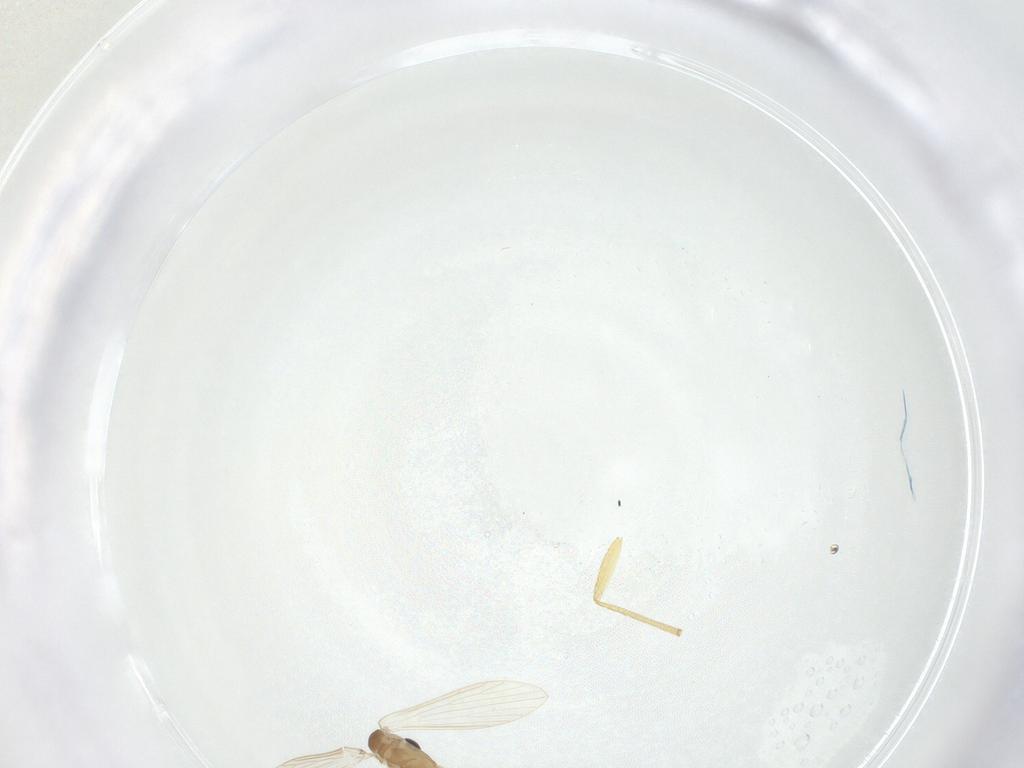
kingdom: Animalia
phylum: Arthropoda
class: Insecta
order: Diptera
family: Psychodidae
